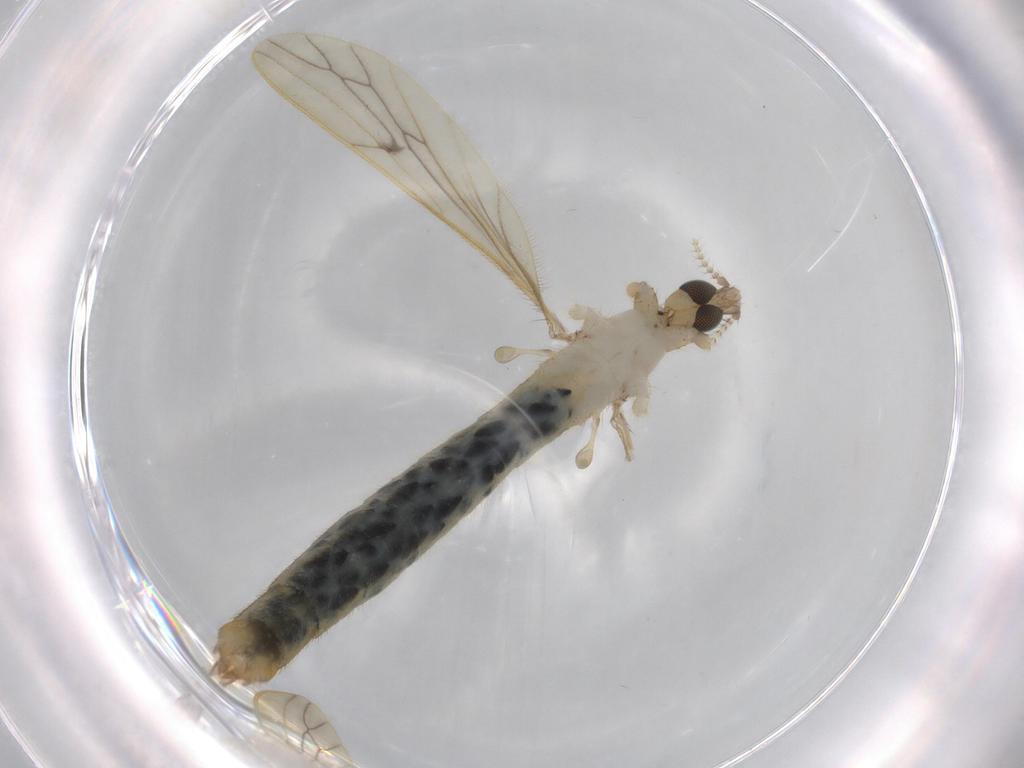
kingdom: Animalia
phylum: Arthropoda
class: Insecta
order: Diptera
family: Limoniidae
